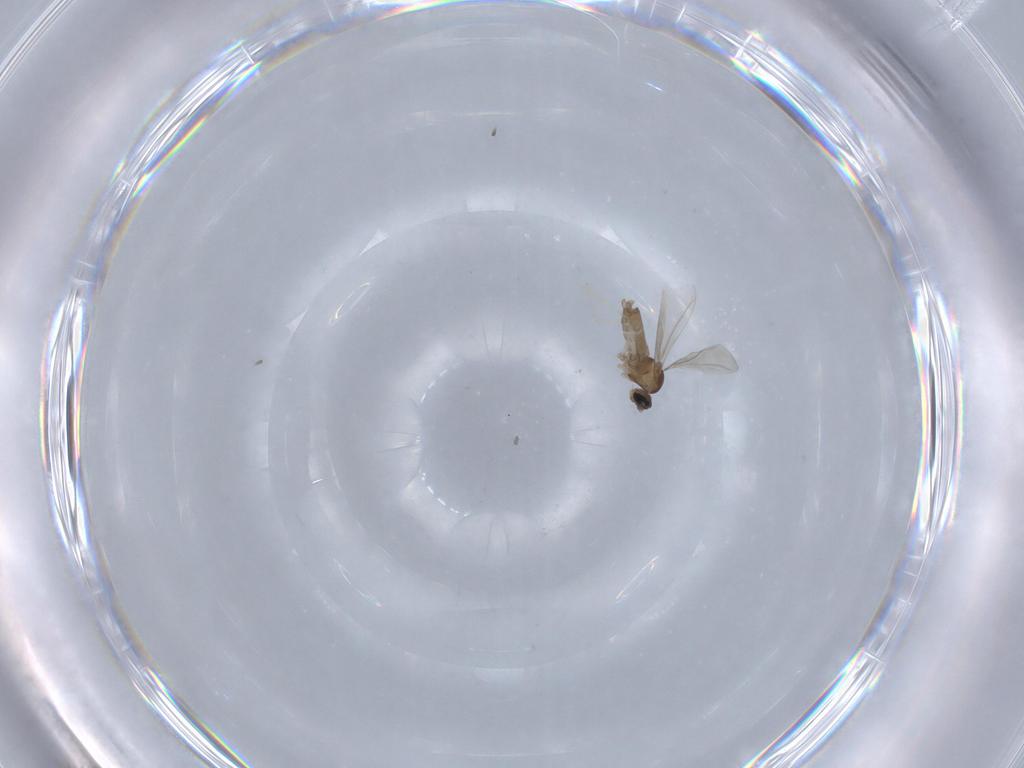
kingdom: Animalia
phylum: Arthropoda
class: Insecta
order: Diptera
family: Cecidomyiidae
